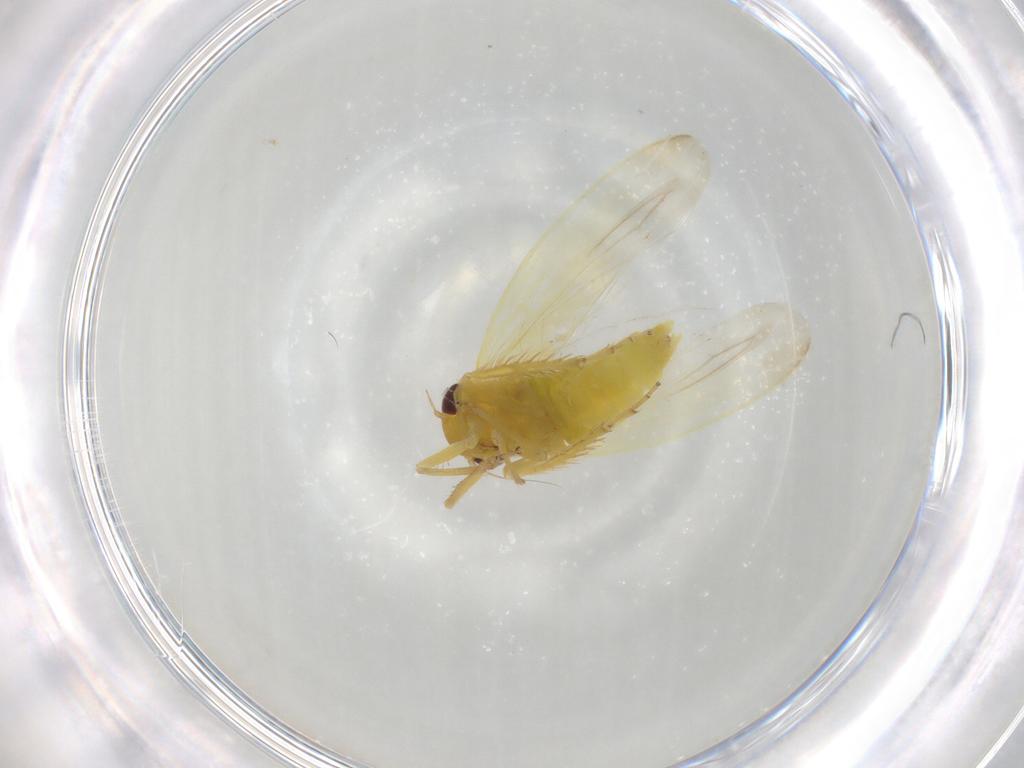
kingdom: Animalia
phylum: Arthropoda
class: Insecta
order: Hemiptera
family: Cicadellidae
